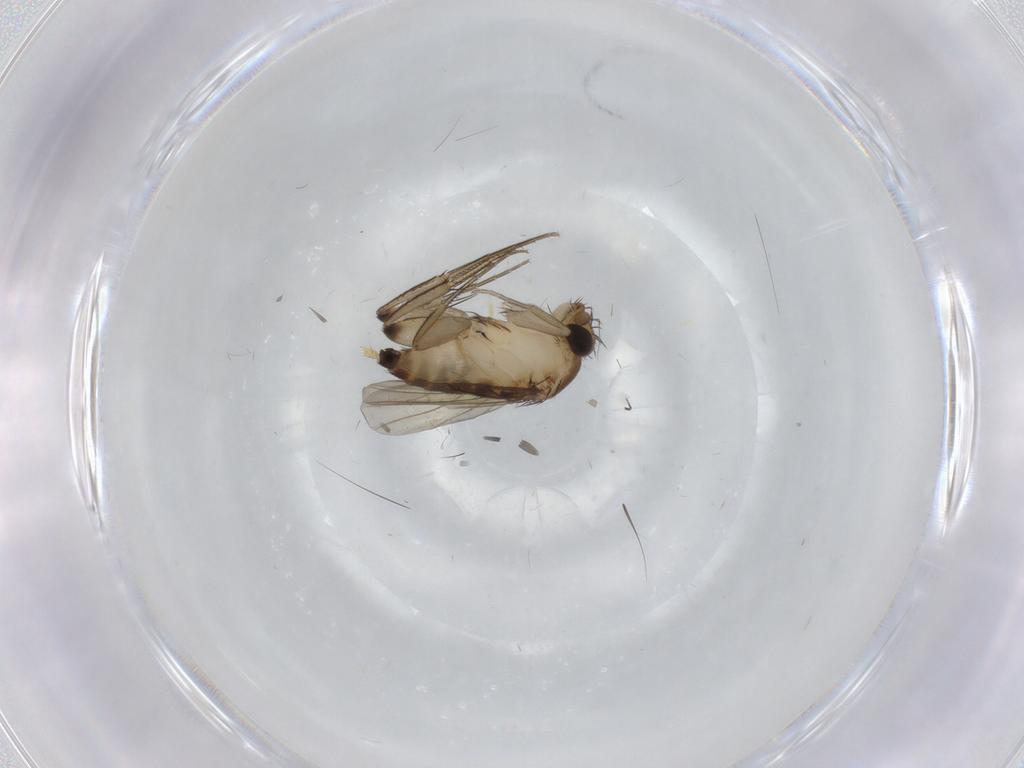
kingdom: Animalia
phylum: Arthropoda
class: Insecta
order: Diptera
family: Phoridae
